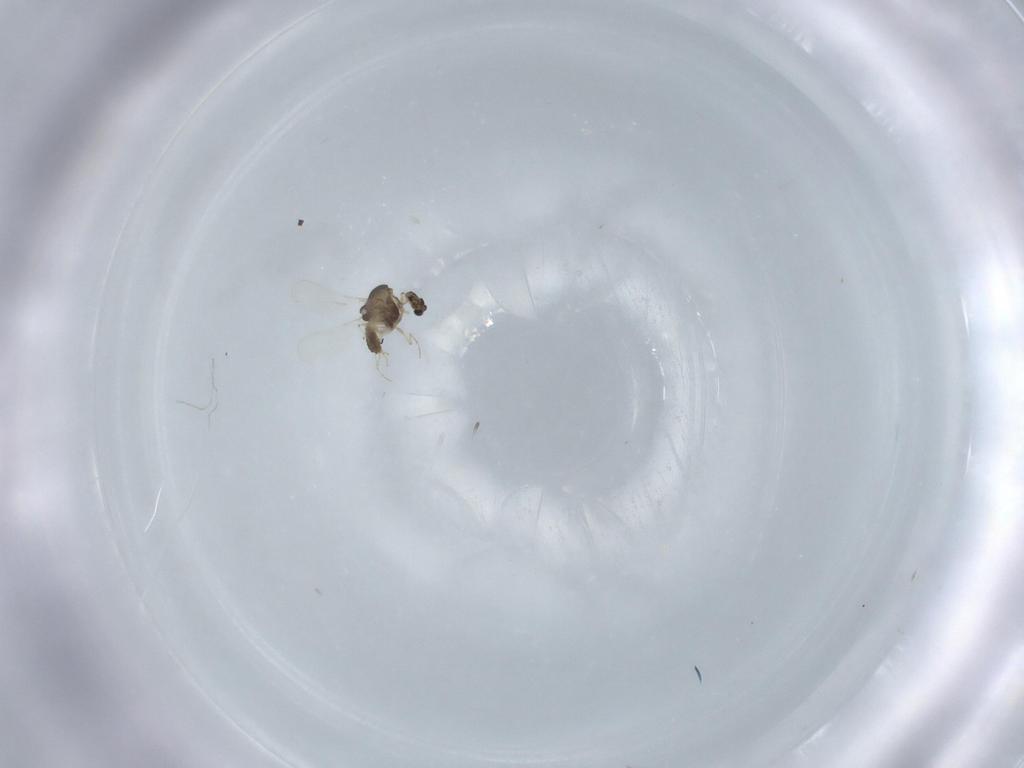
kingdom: Animalia
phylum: Arthropoda
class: Insecta
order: Diptera
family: Chironomidae
